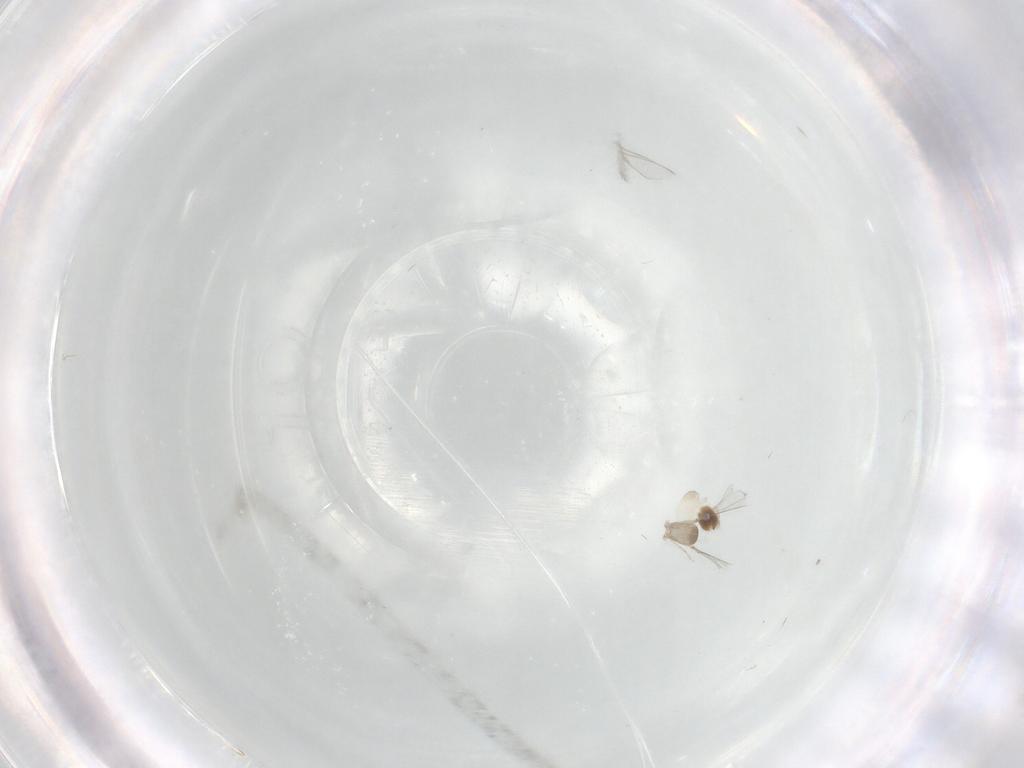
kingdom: Animalia
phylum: Arthropoda
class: Insecta
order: Diptera
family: Cecidomyiidae
